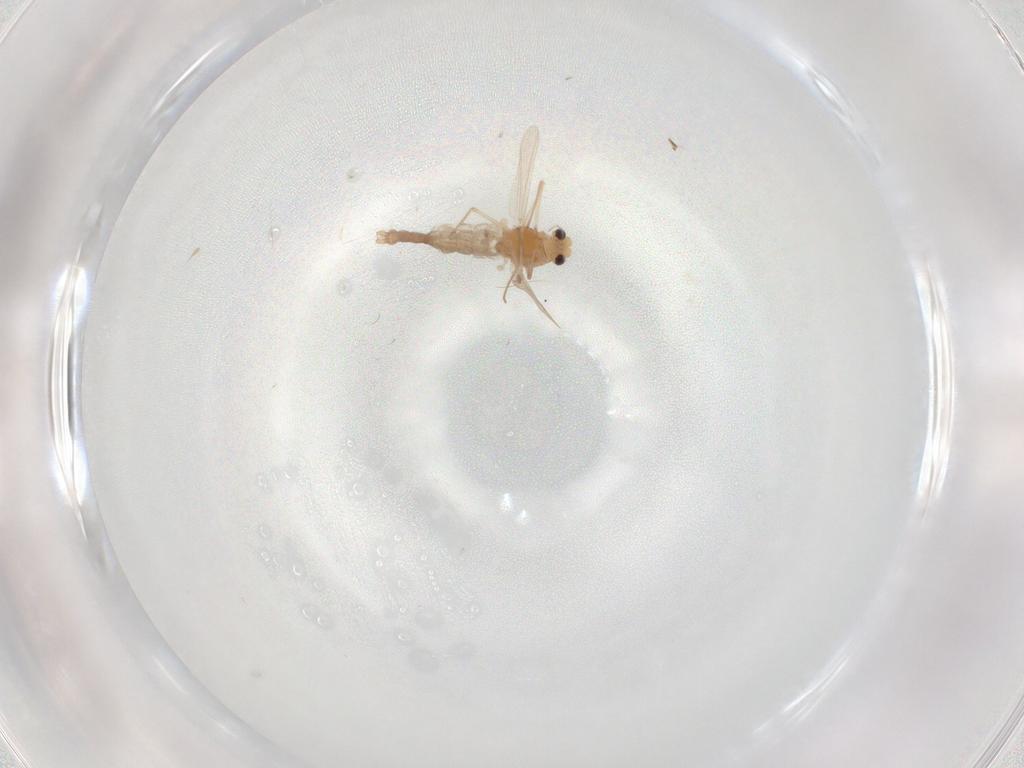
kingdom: Animalia
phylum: Arthropoda
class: Insecta
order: Diptera
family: Chironomidae
